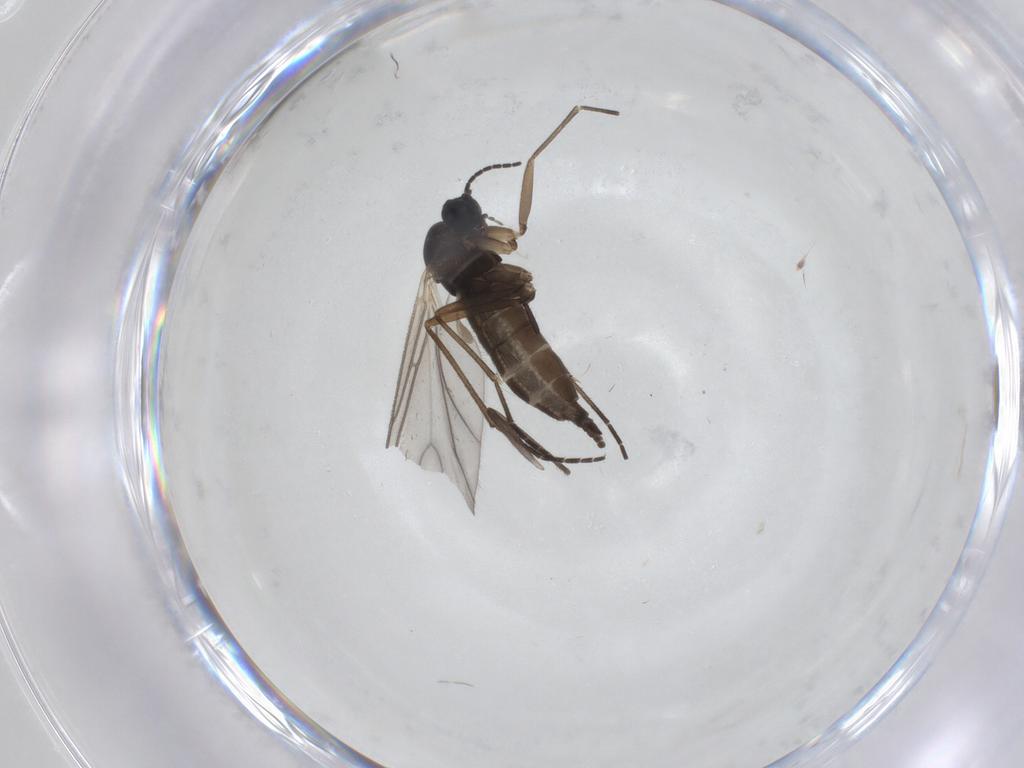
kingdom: Animalia
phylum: Arthropoda
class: Insecta
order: Diptera
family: Sciaridae
